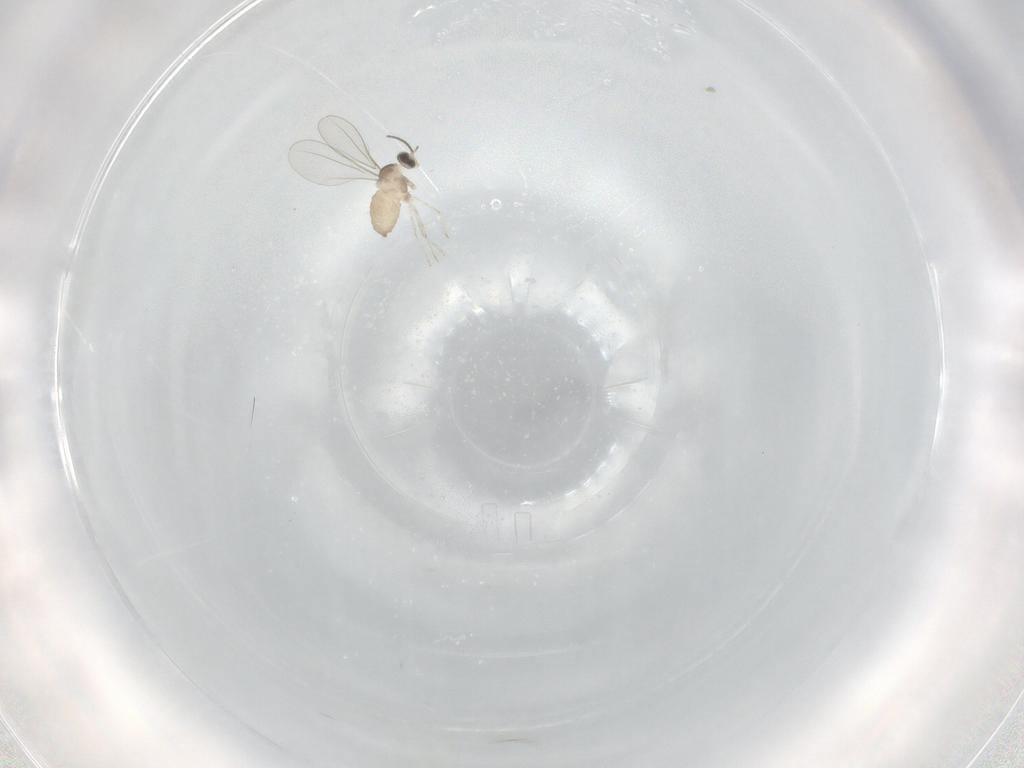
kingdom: Animalia
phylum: Arthropoda
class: Insecta
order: Diptera
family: Cecidomyiidae
